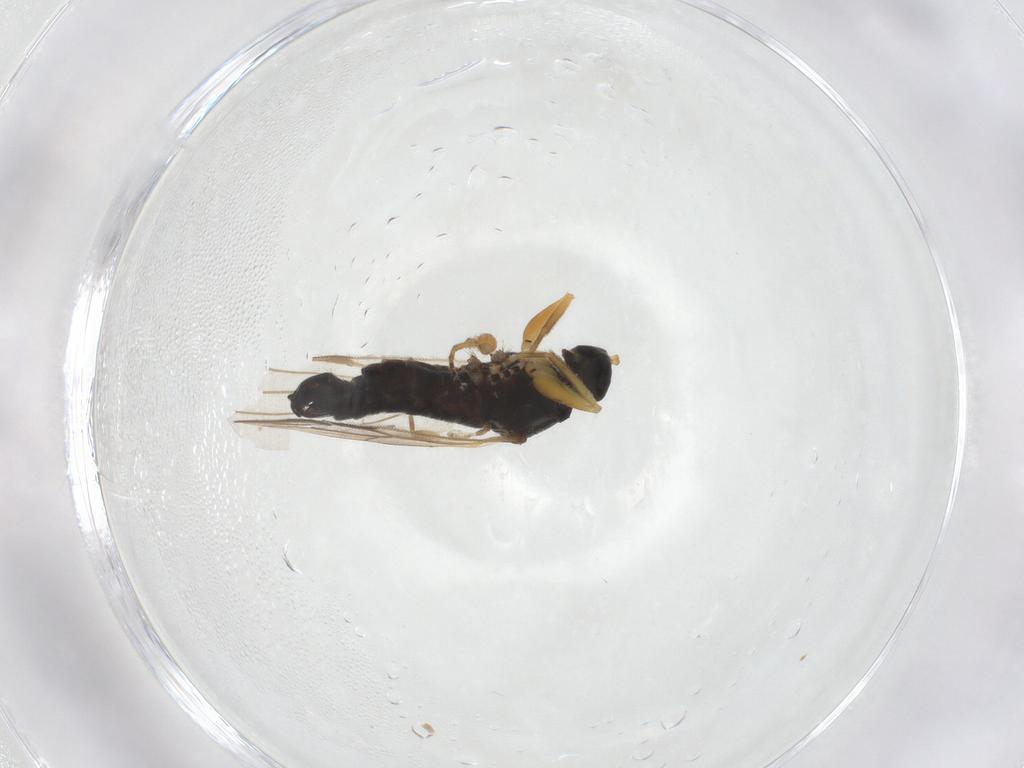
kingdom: Animalia
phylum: Arthropoda
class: Insecta
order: Diptera
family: Hybotidae
